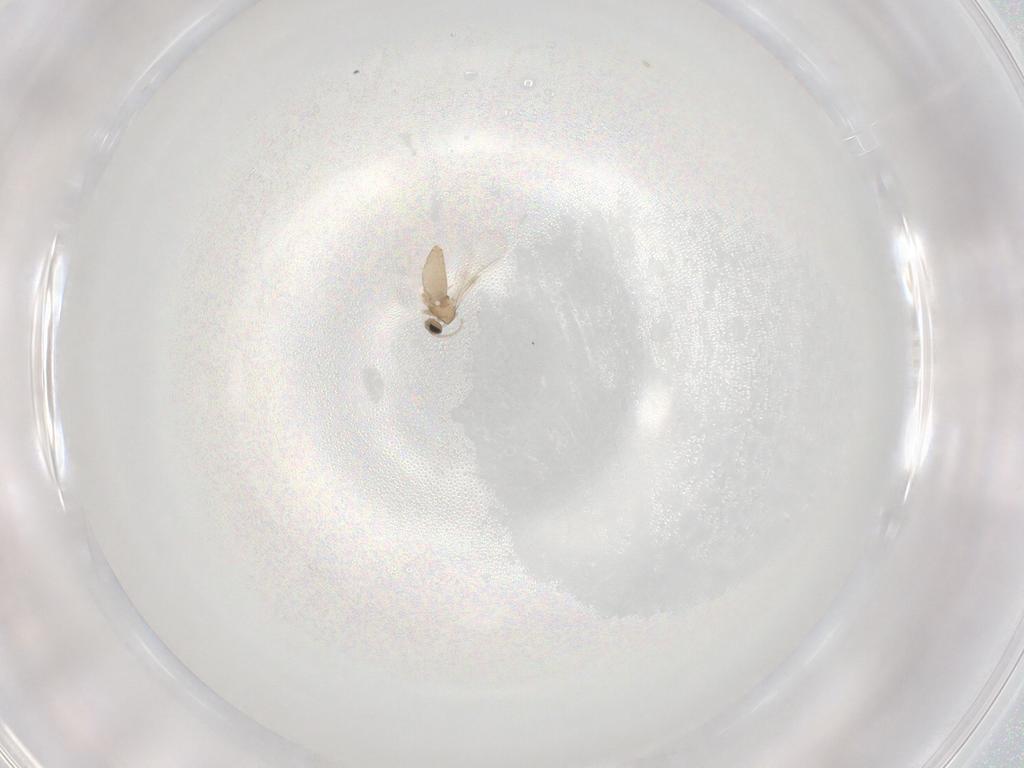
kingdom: Animalia
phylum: Arthropoda
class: Insecta
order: Diptera
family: Cecidomyiidae
